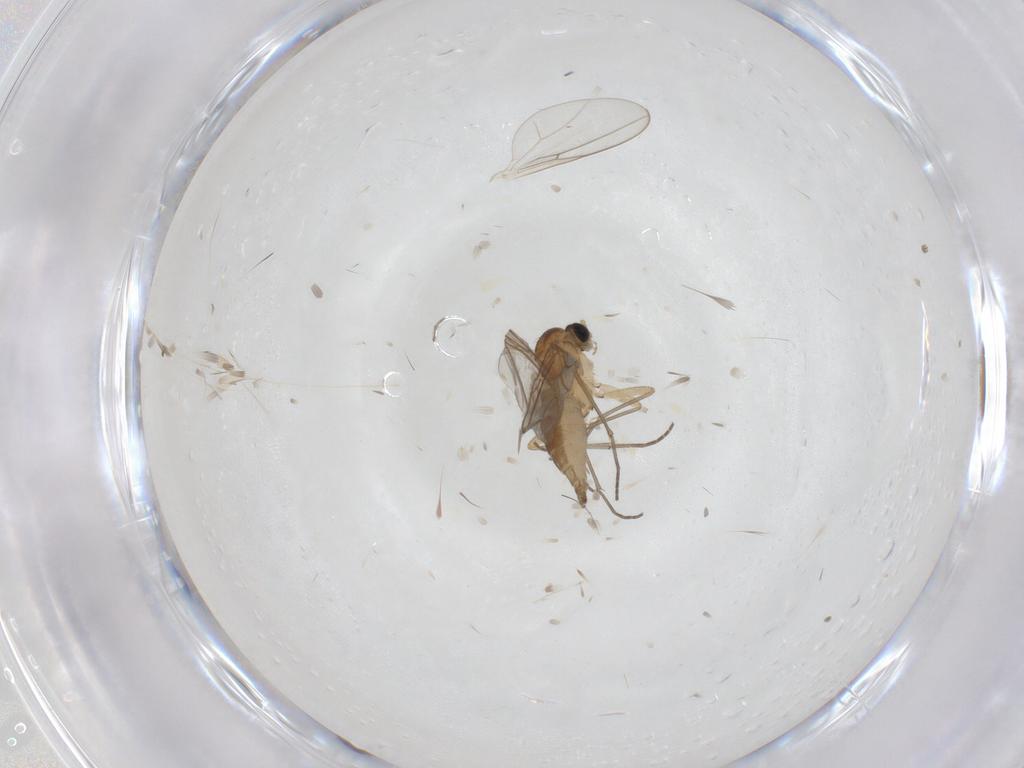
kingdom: Animalia
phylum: Arthropoda
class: Insecta
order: Diptera
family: Sciaridae
